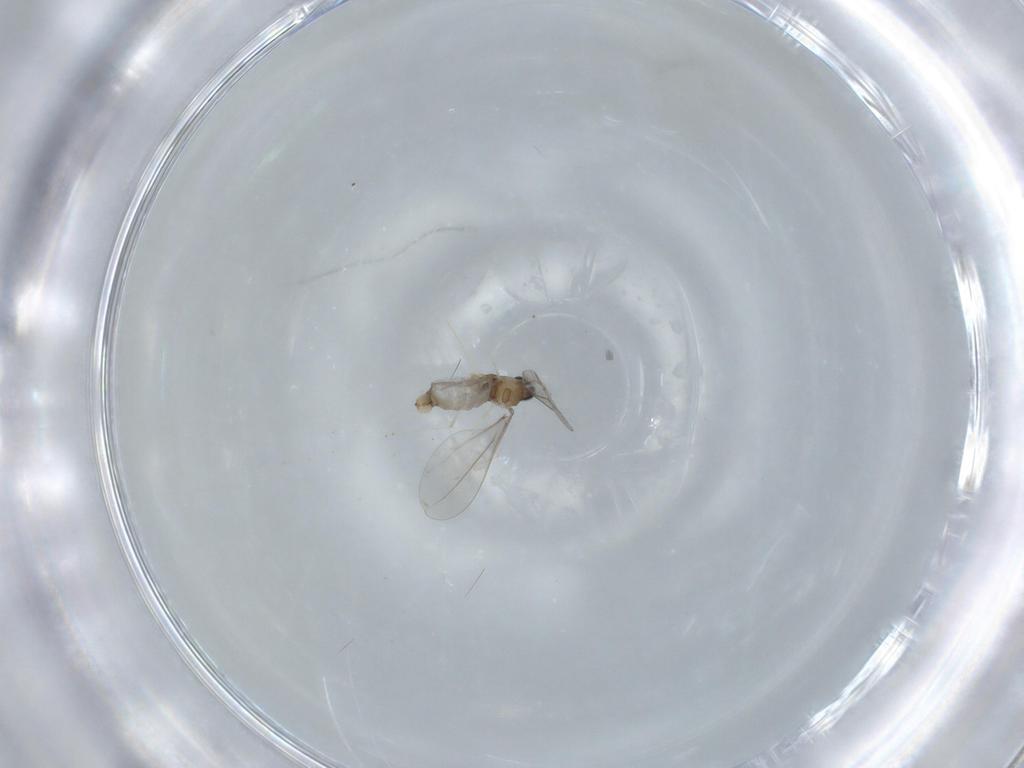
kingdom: Animalia
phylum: Arthropoda
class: Insecta
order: Diptera
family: Cecidomyiidae
